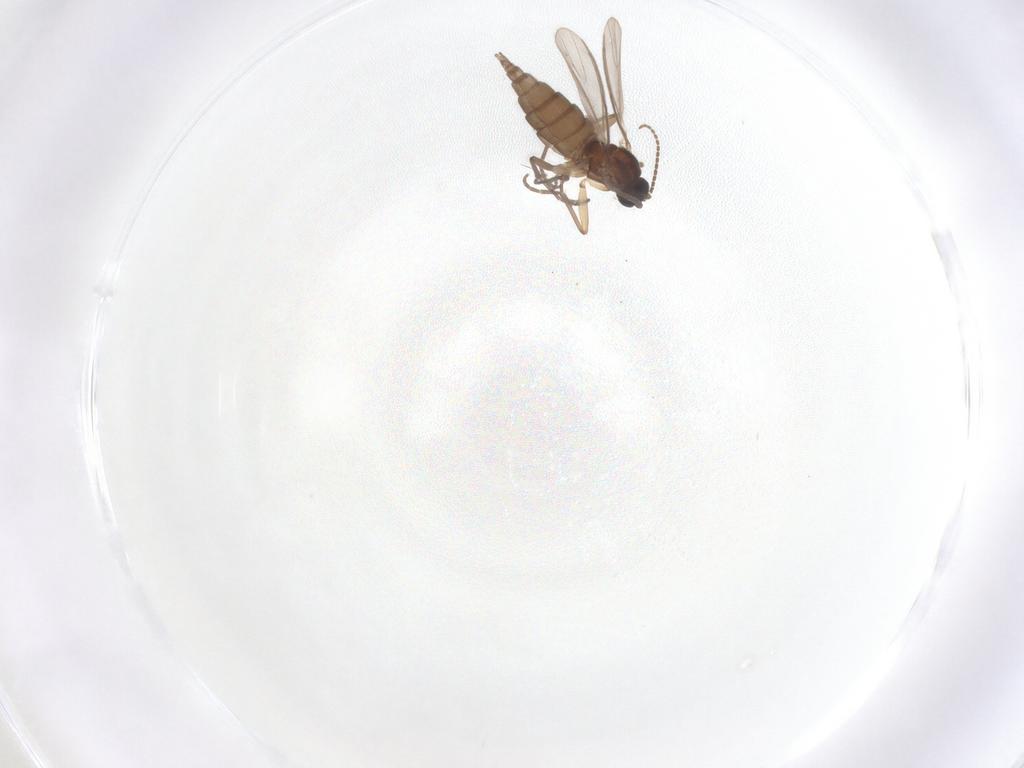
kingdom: Animalia
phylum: Arthropoda
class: Insecta
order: Diptera
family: Sciaridae
